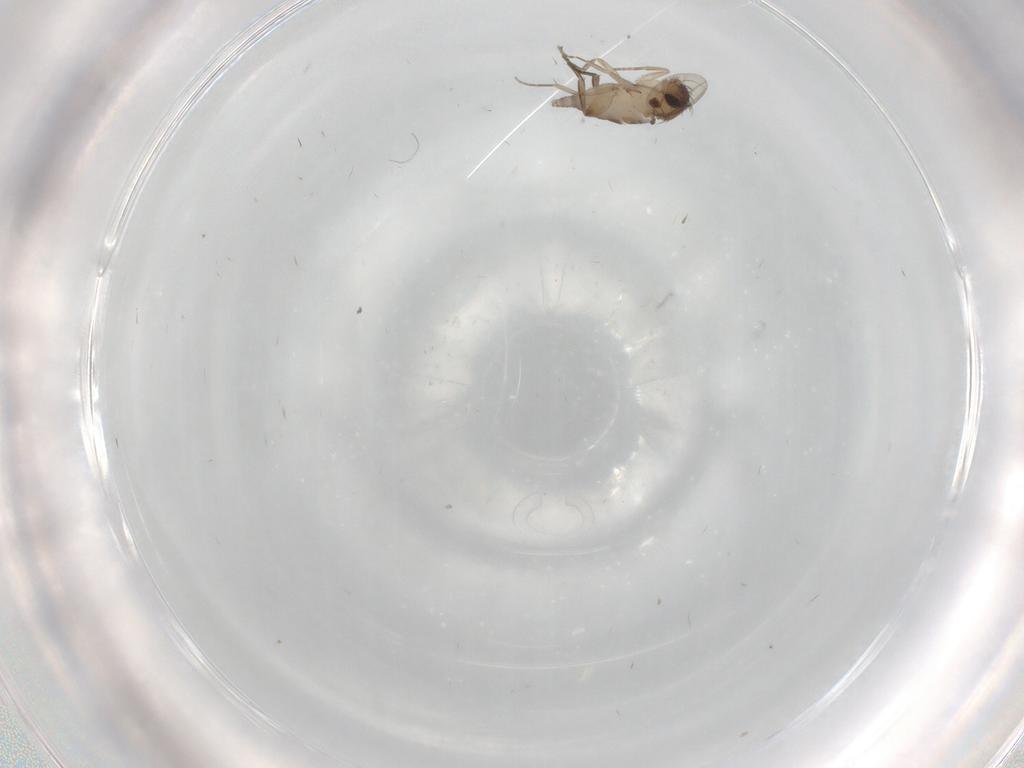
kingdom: Animalia
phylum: Arthropoda
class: Insecta
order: Diptera
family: Phoridae
